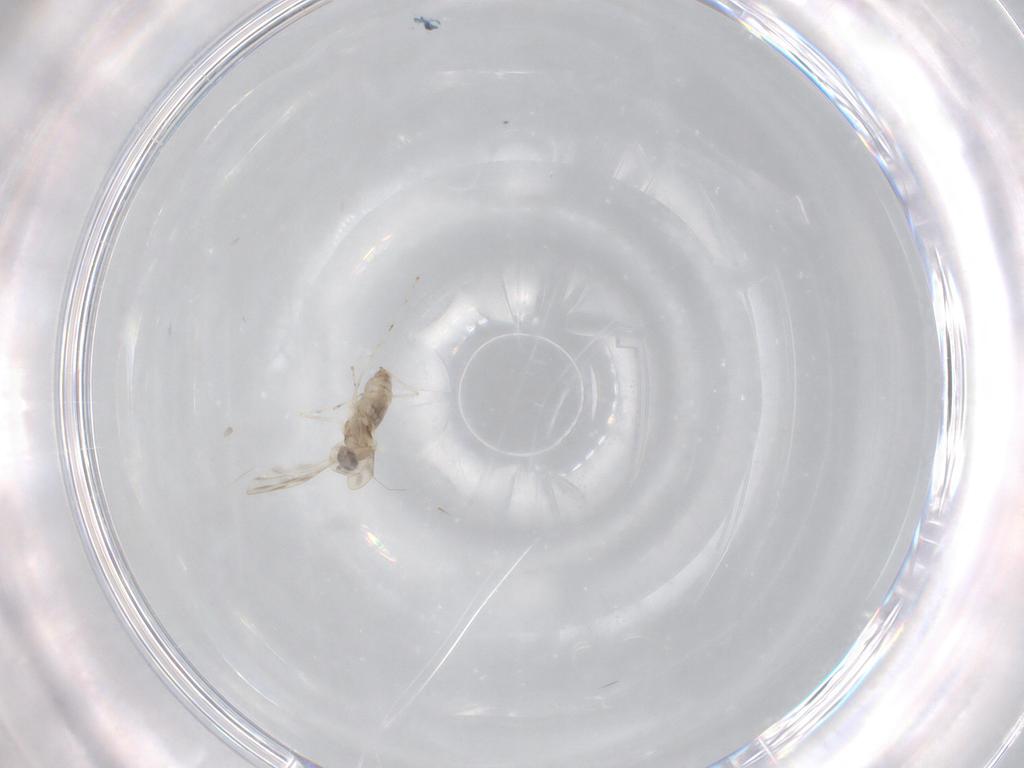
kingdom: Animalia
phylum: Arthropoda
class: Insecta
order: Diptera
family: Cecidomyiidae
